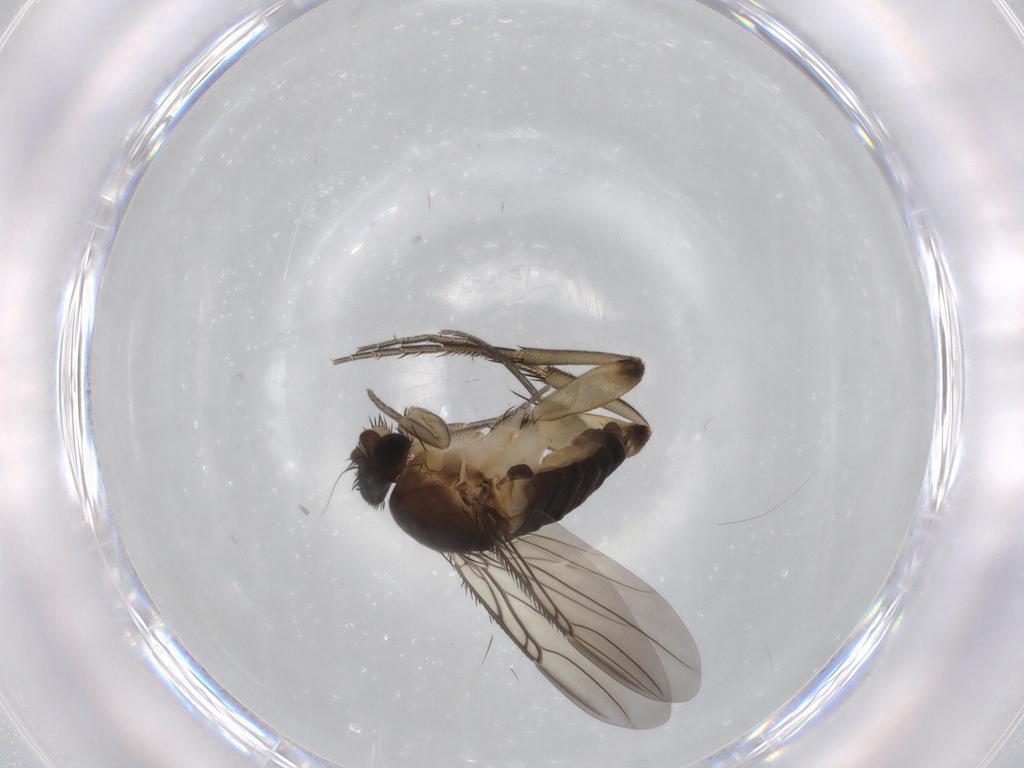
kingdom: Animalia
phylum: Arthropoda
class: Insecta
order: Diptera
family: Phoridae
